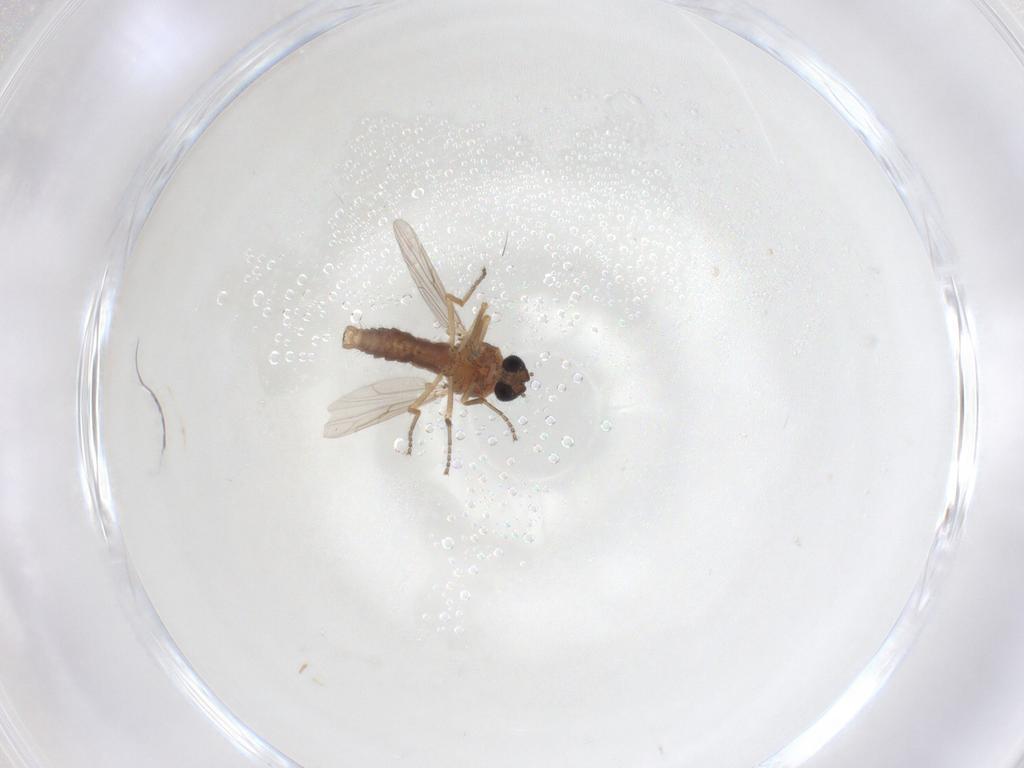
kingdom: Animalia
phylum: Arthropoda
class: Insecta
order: Diptera
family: Ceratopogonidae
